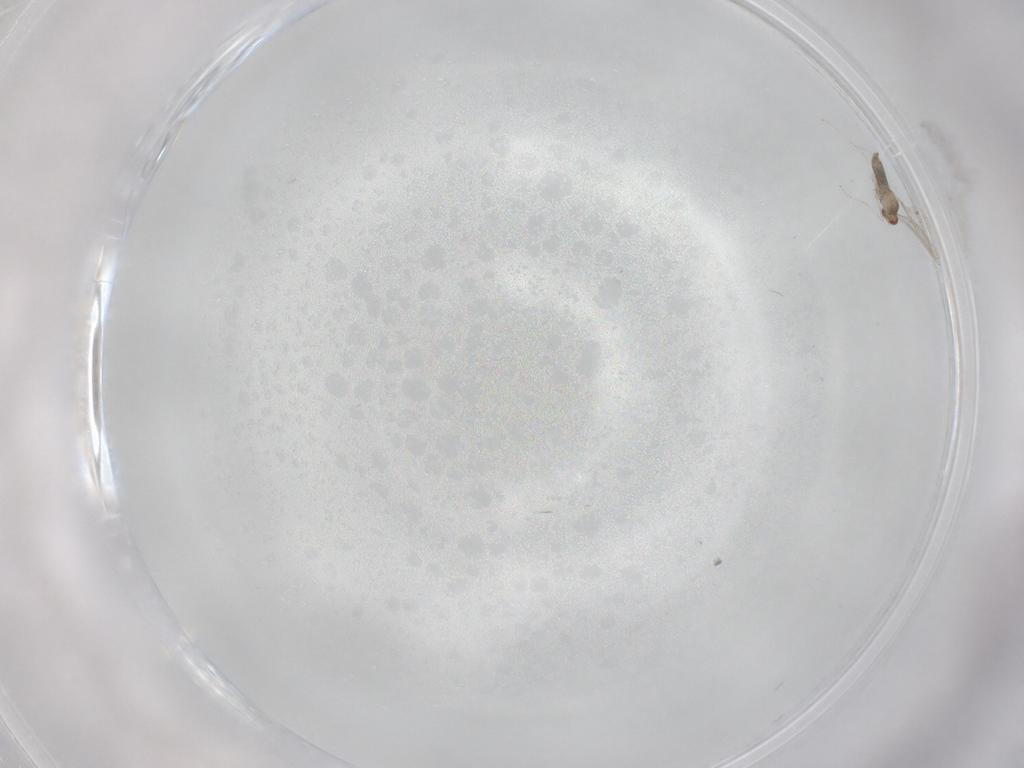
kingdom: Animalia
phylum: Arthropoda
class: Insecta
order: Diptera
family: Cecidomyiidae
